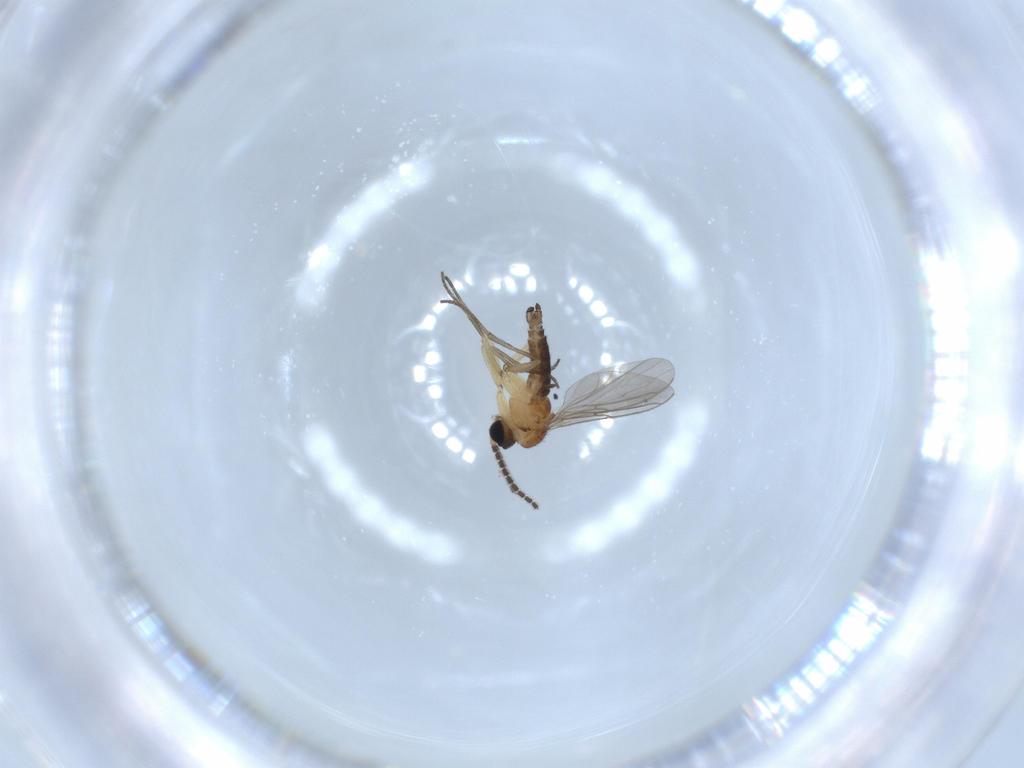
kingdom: Animalia
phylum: Arthropoda
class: Insecta
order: Diptera
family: Sciaridae
